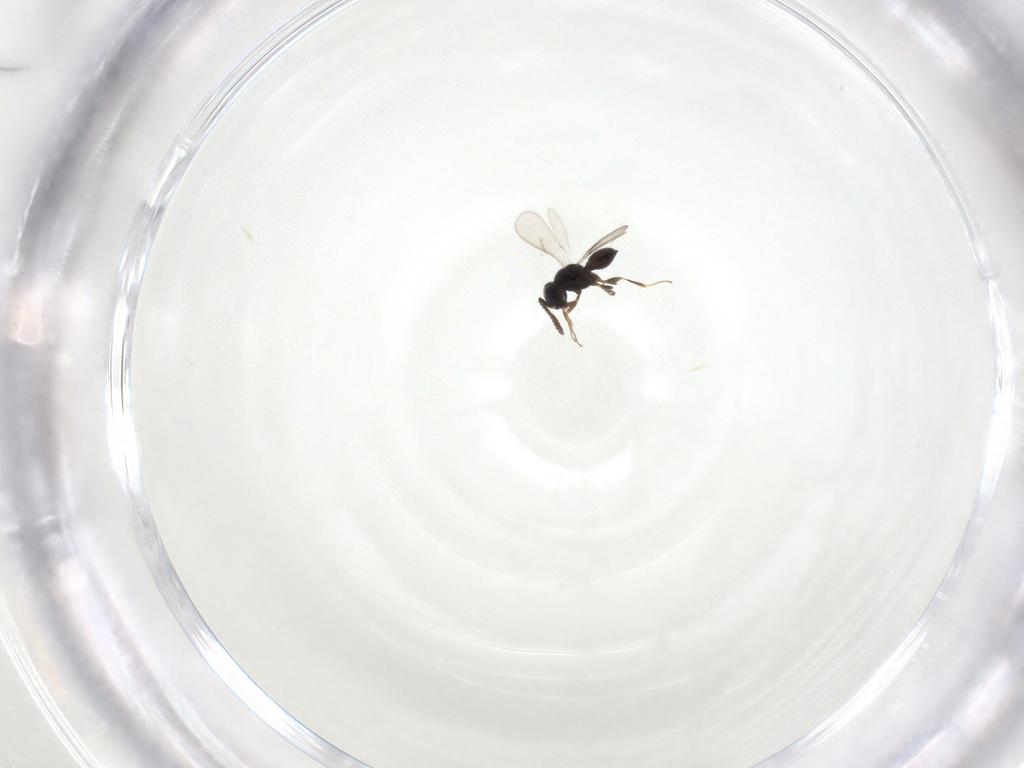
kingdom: Animalia
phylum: Arthropoda
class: Insecta
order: Hymenoptera
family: Scelionidae
